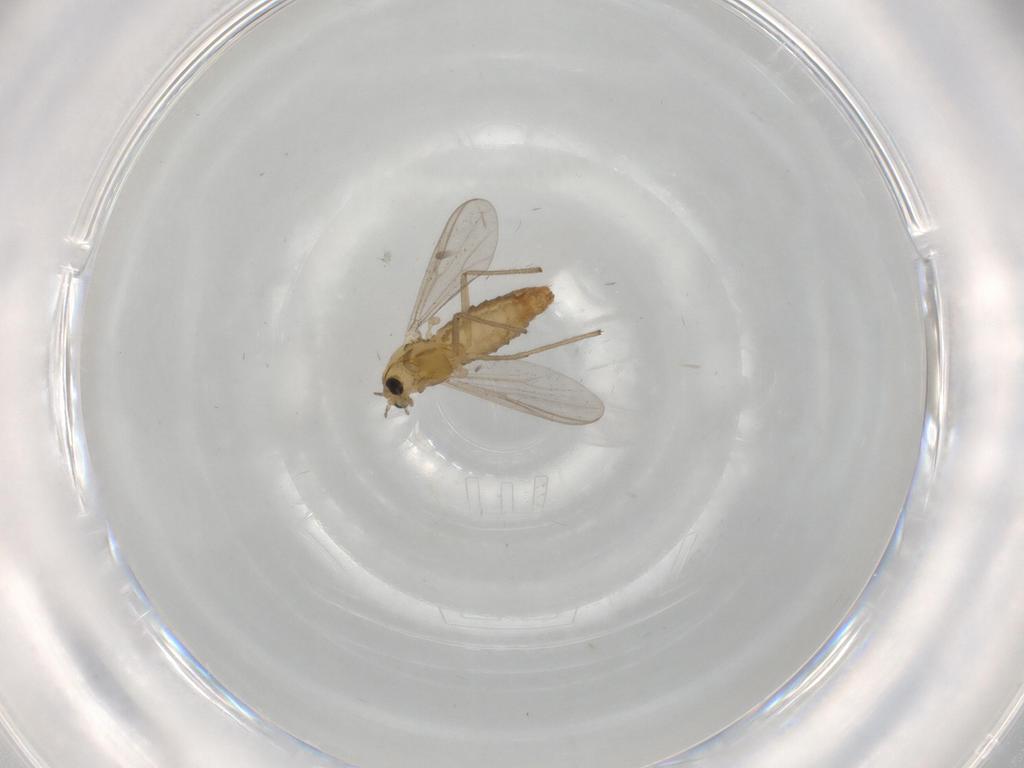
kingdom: Animalia
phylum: Arthropoda
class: Insecta
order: Diptera
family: Chironomidae
